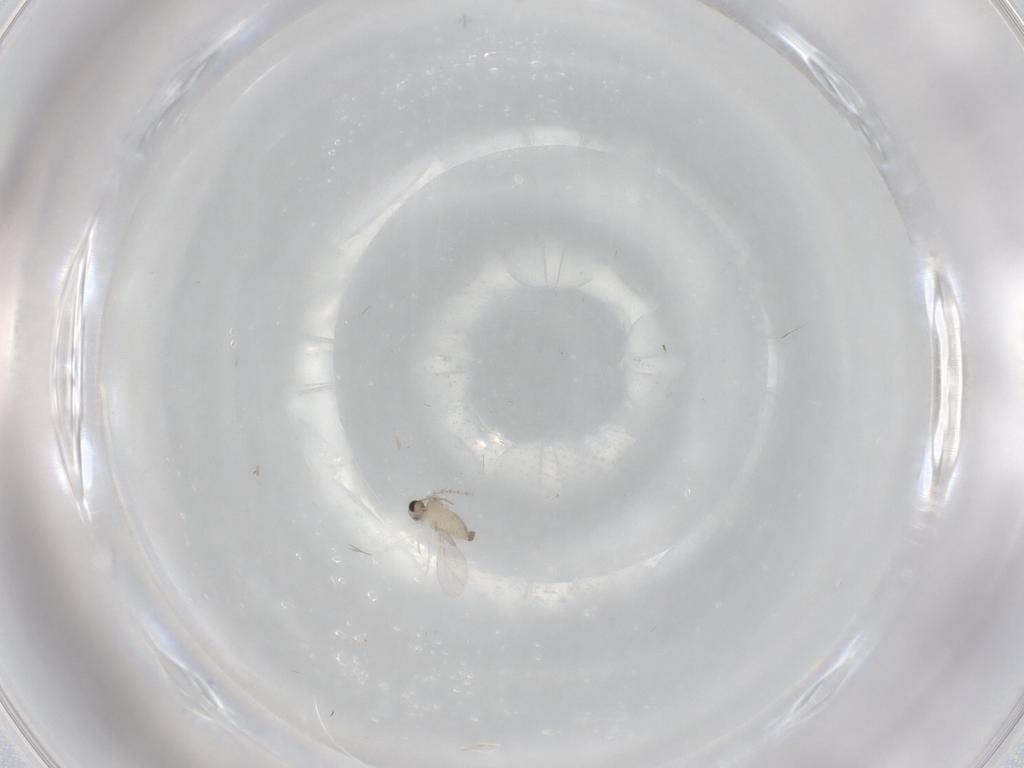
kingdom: Animalia
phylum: Arthropoda
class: Insecta
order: Diptera
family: Cecidomyiidae
